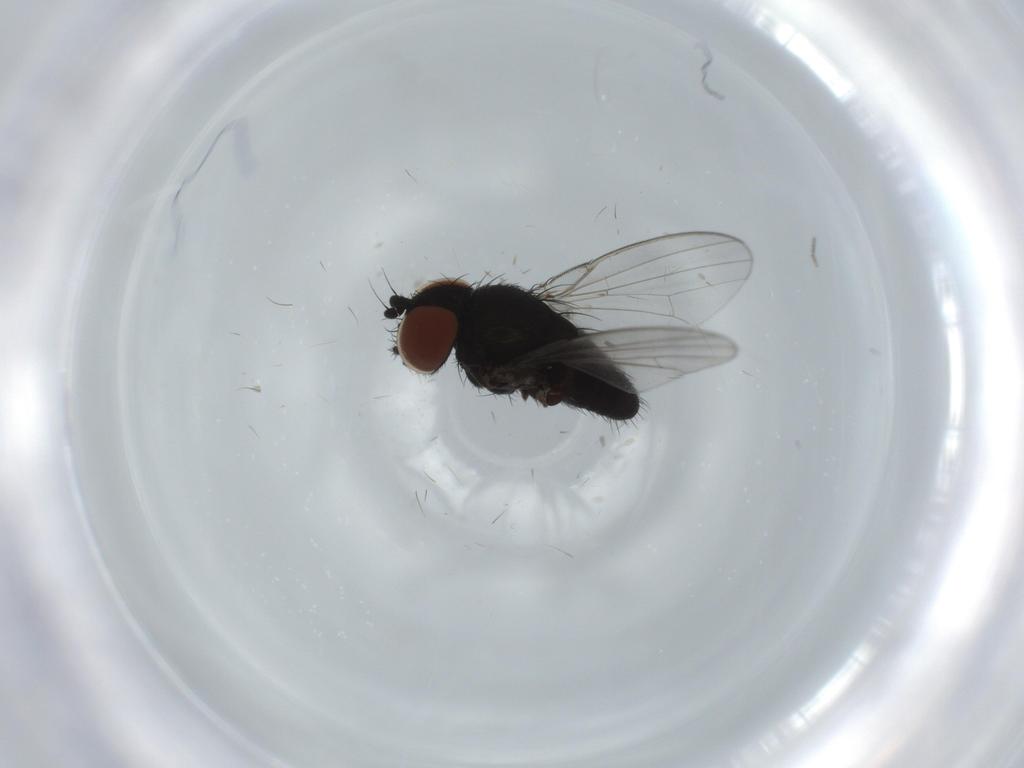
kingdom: Animalia
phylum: Arthropoda
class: Insecta
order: Diptera
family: Milichiidae
